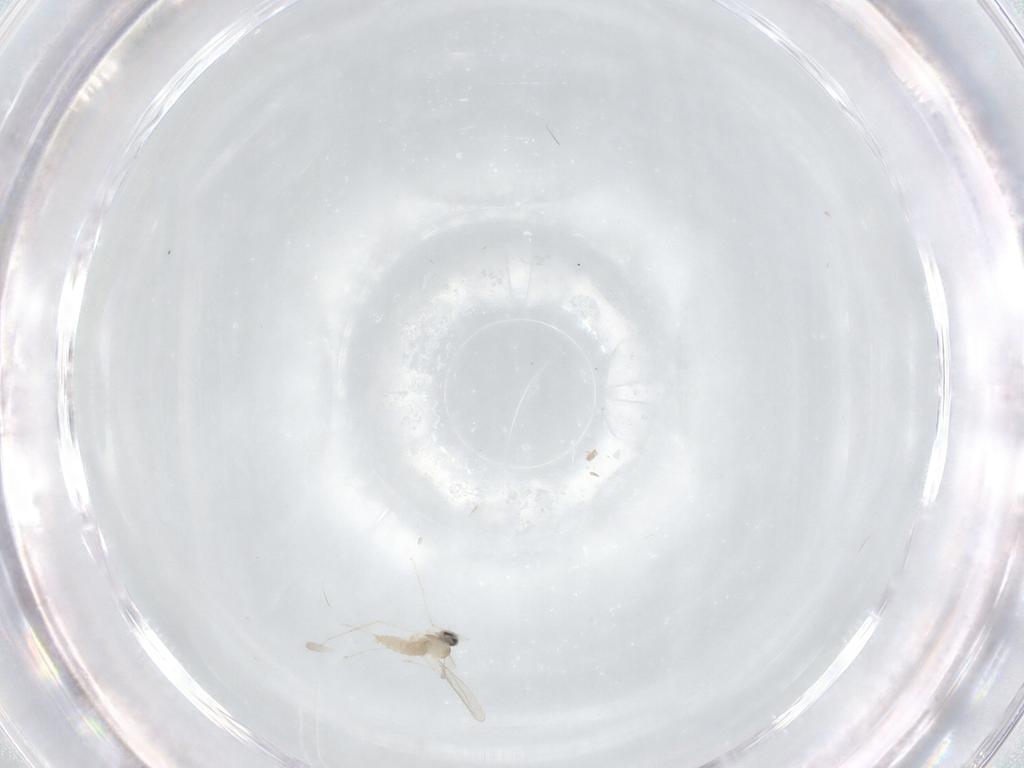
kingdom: Animalia
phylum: Arthropoda
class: Insecta
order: Diptera
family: Cecidomyiidae
